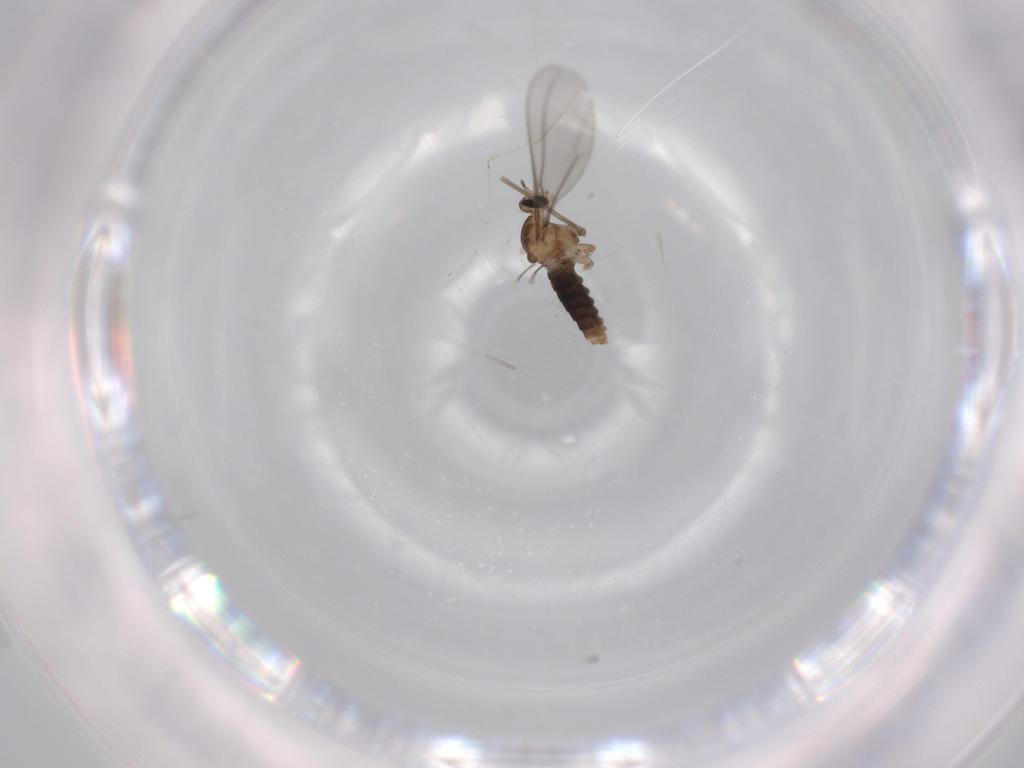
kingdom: Animalia
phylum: Arthropoda
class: Insecta
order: Diptera
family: Cecidomyiidae
